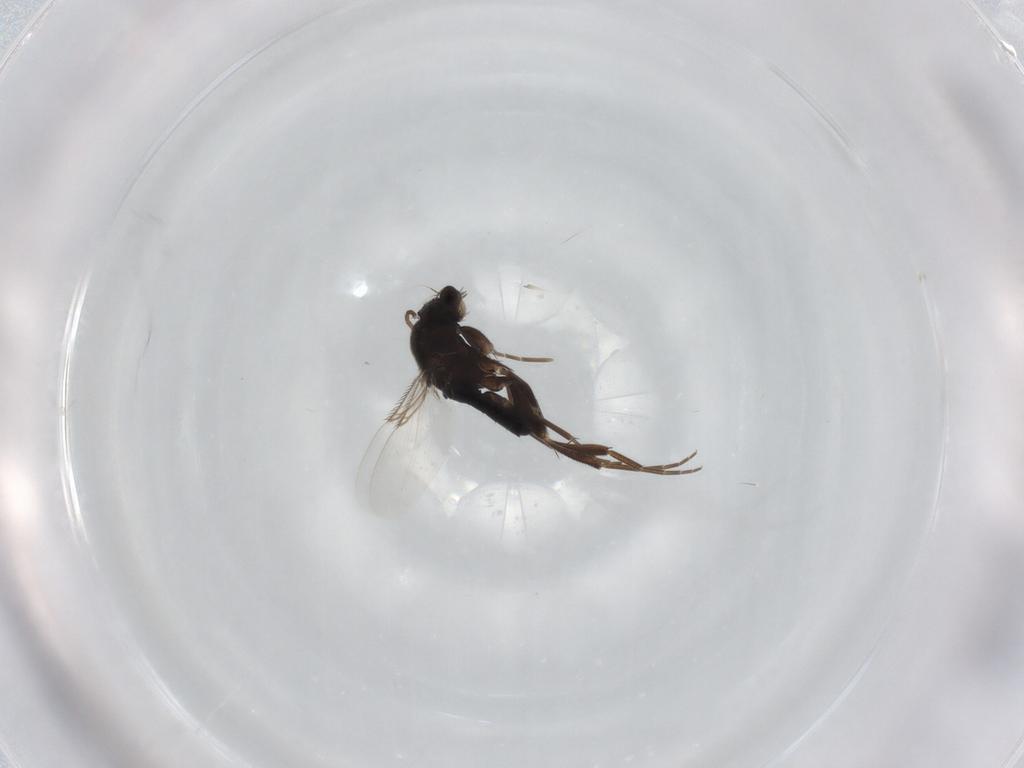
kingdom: Animalia
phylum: Arthropoda
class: Insecta
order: Diptera
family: Phoridae
